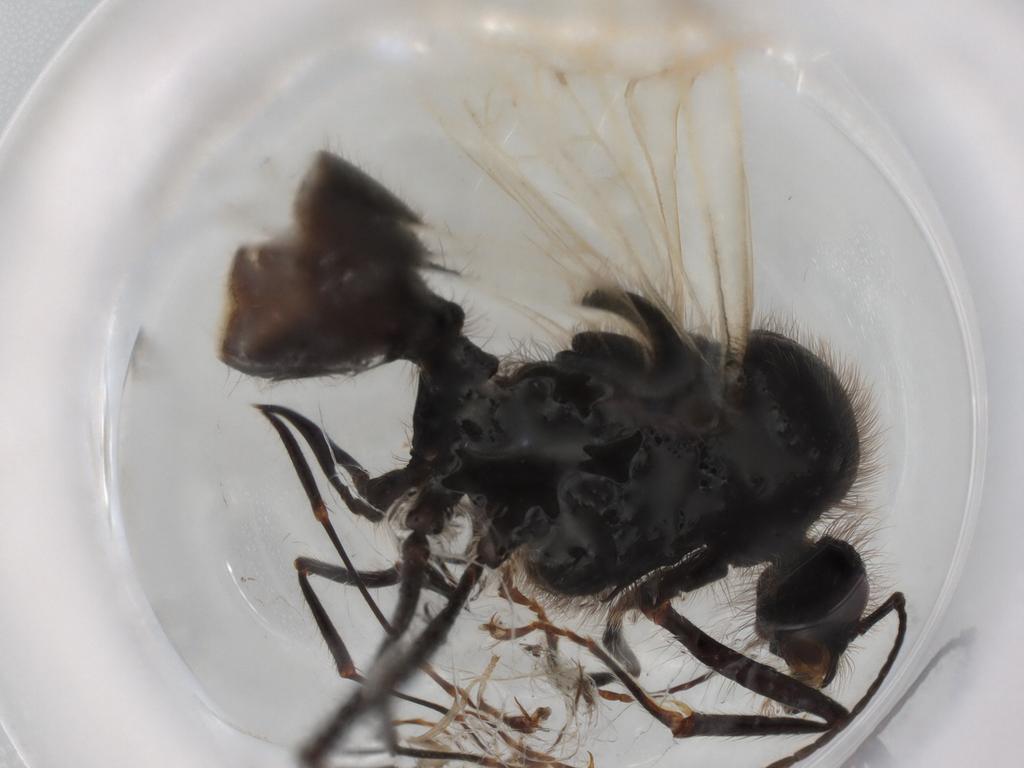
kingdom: Animalia
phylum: Arthropoda
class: Insecta
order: Hymenoptera
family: Formicidae
